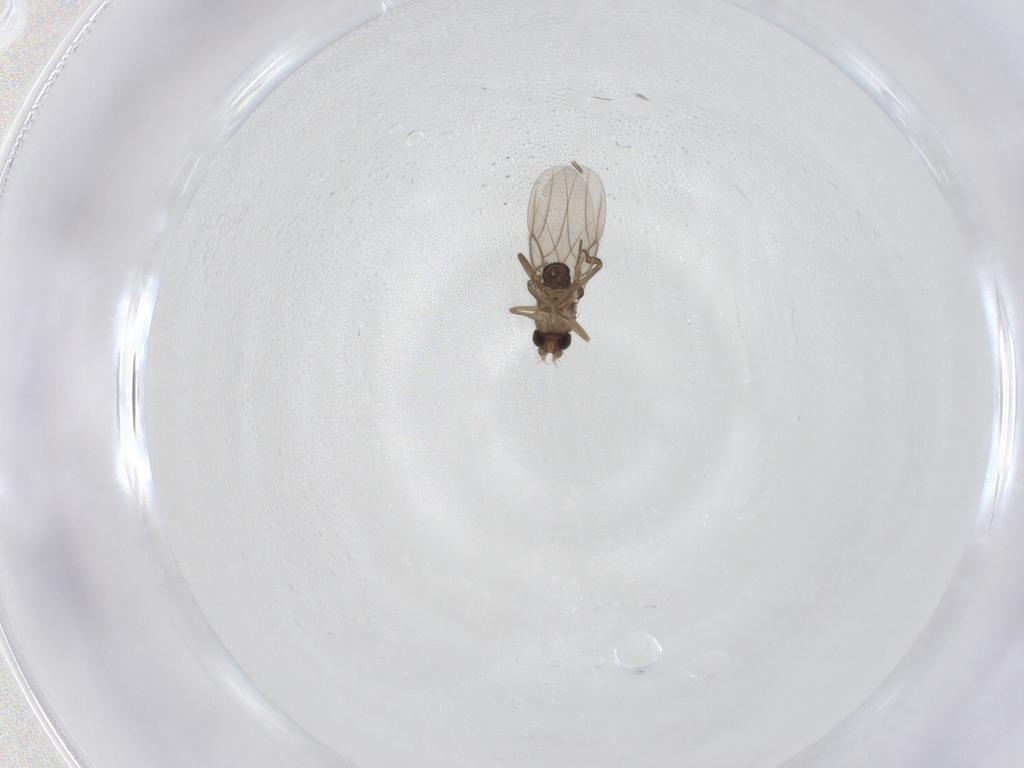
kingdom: Animalia
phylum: Arthropoda
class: Insecta
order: Diptera
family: Phoridae
